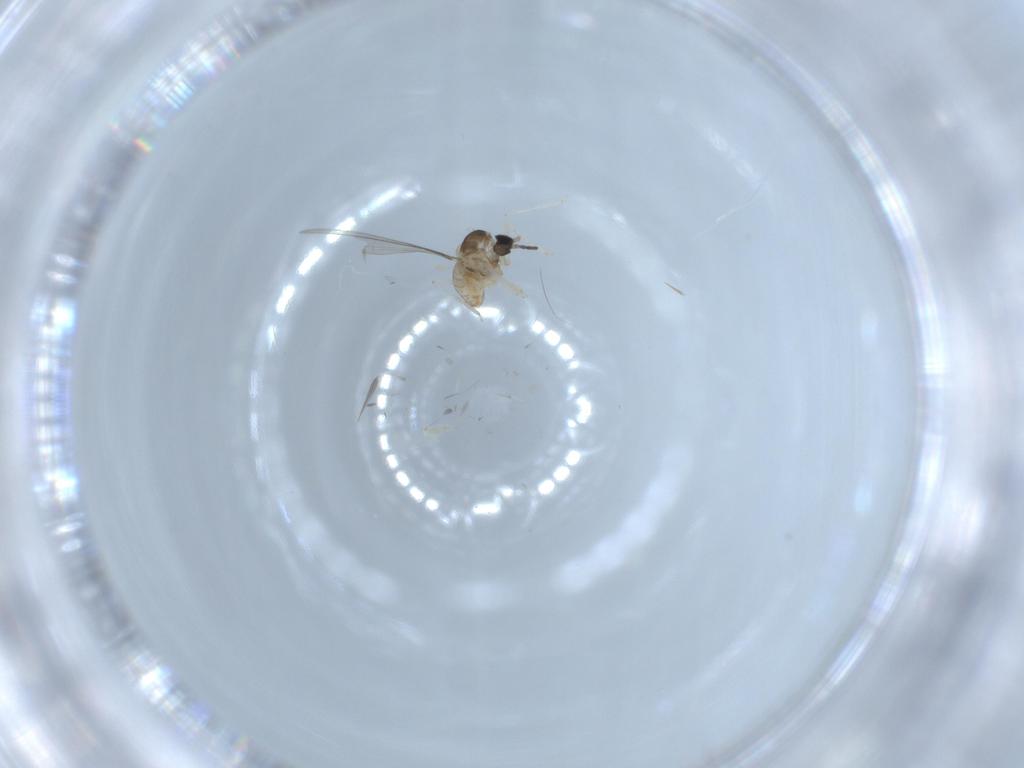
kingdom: Animalia
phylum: Arthropoda
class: Insecta
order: Diptera
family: Cecidomyiidae
